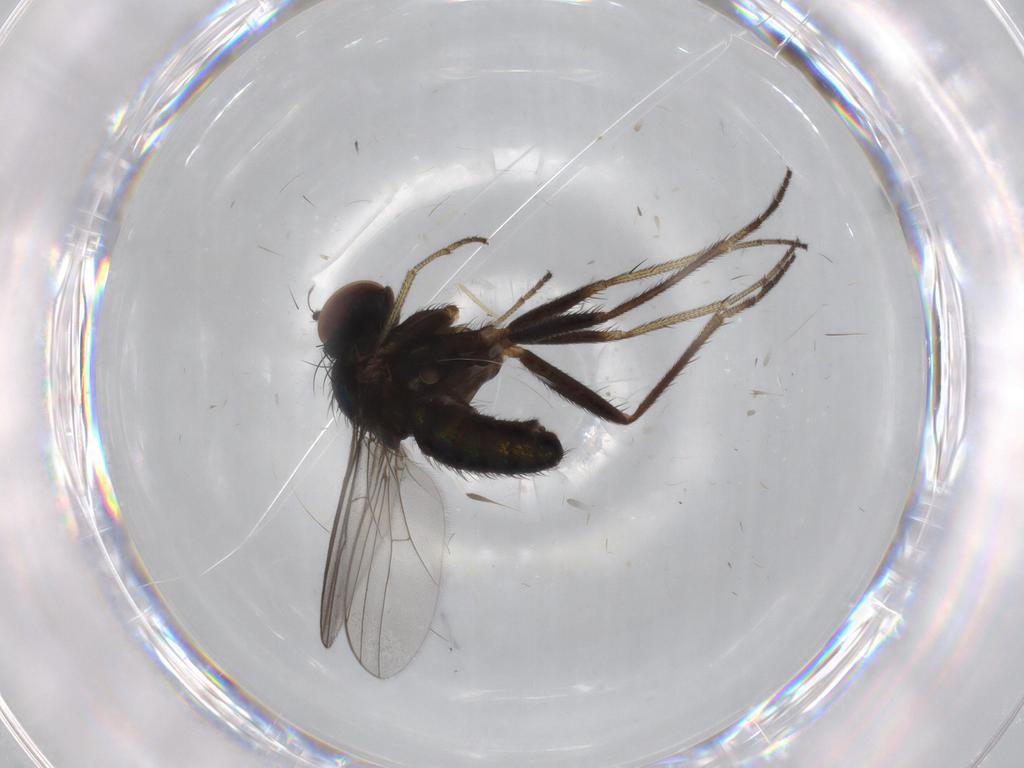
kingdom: Animalia
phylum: Arthropoda
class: Insecta
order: Diptera
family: Dolichopodidae
